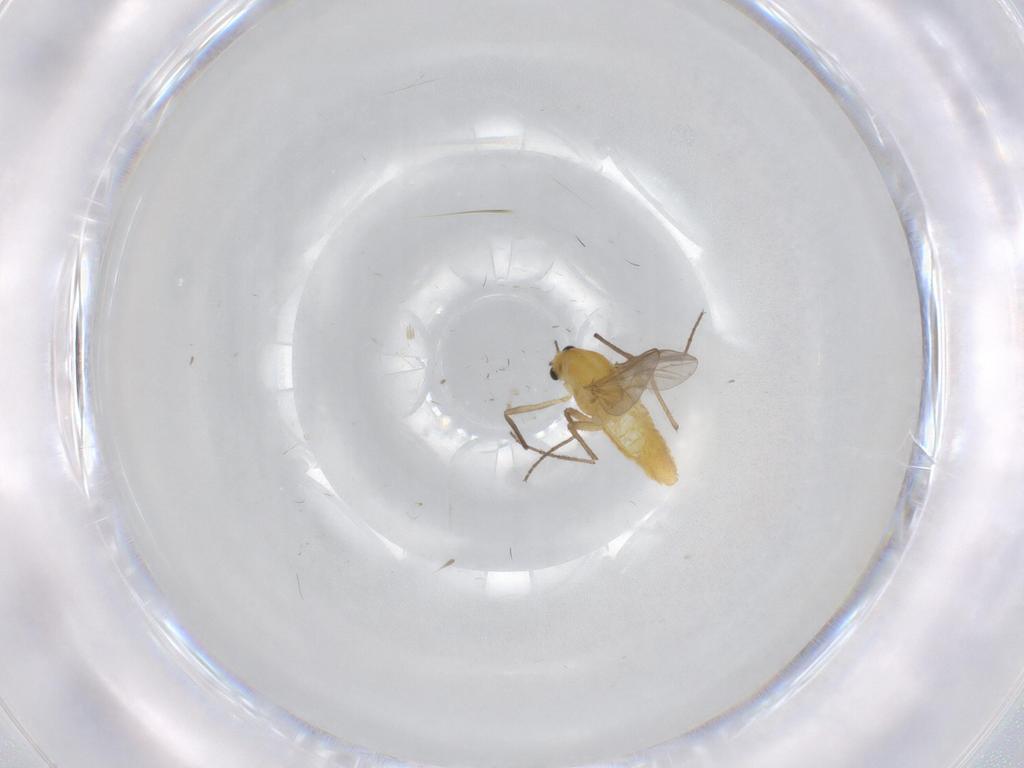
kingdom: Animalia
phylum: Arthropoda
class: Insecta
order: Diptera
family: Chironomidae
